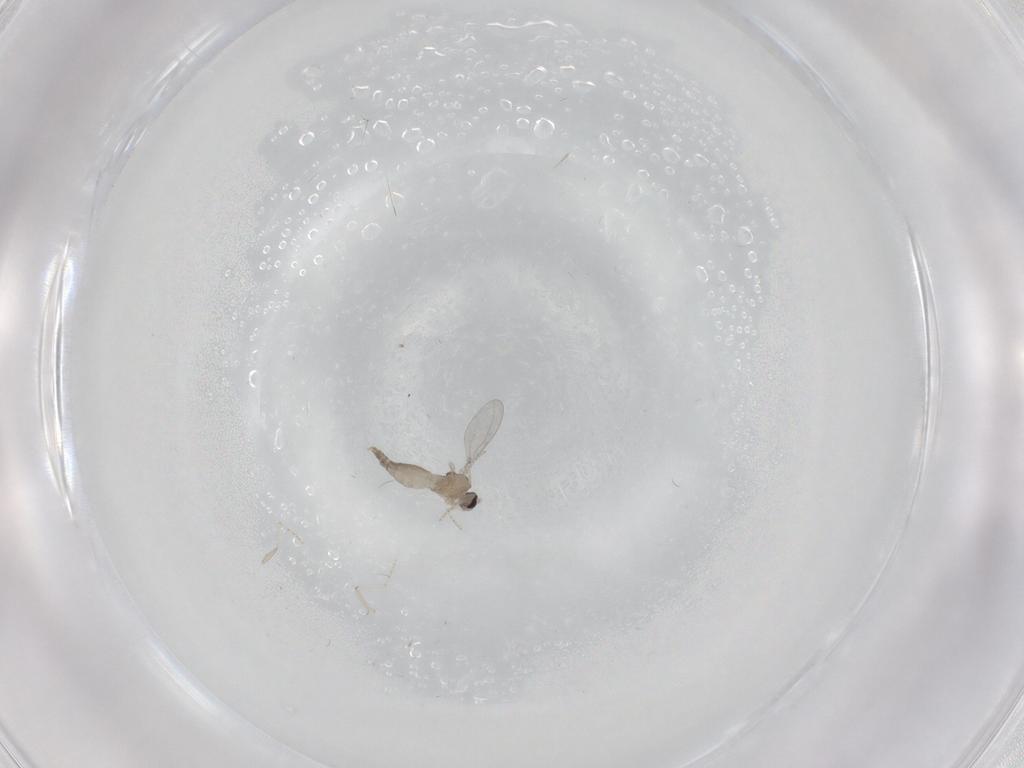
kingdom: Animalia
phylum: Arthropoda
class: Insecta
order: Diptera
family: Cecidomyiidae
